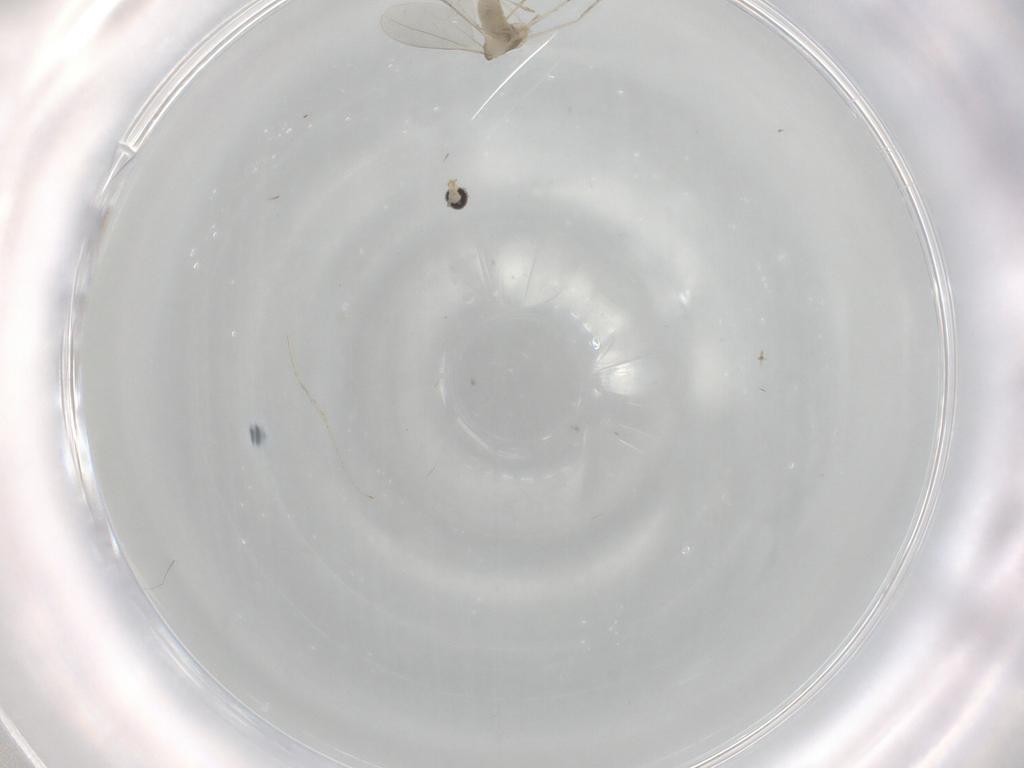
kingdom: Animalia
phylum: Arthropoda
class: Insecta
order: Diptera
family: Cecidomyiidae
